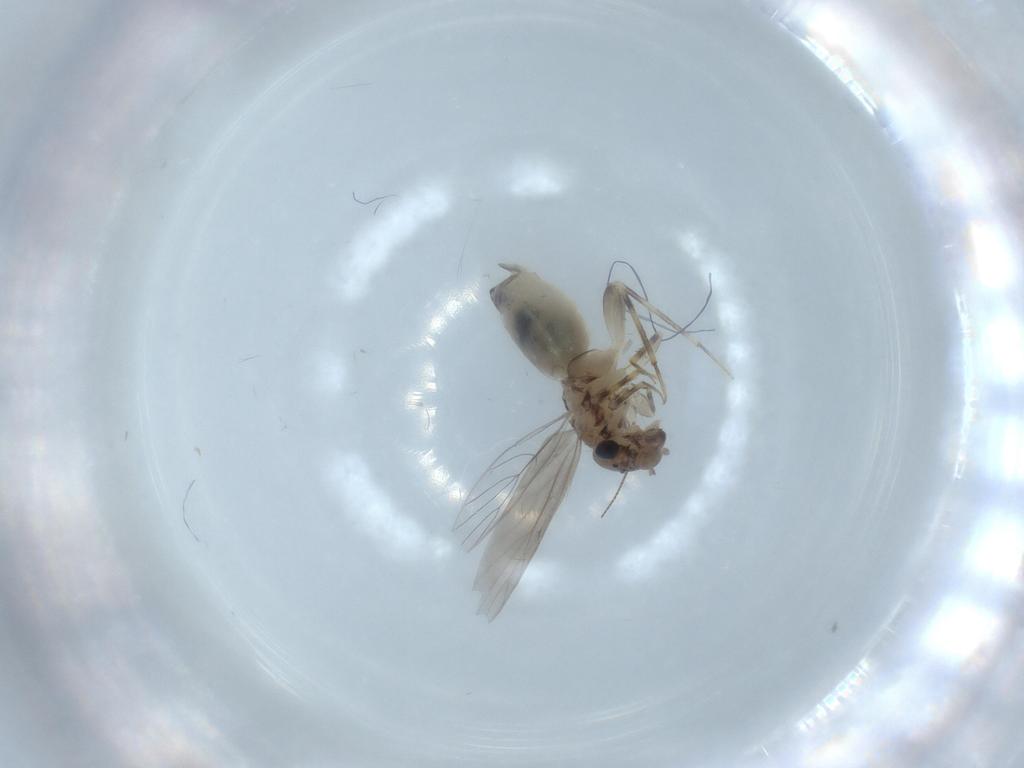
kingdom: Animalia
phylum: Arthropoda
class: Insecta
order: Psocodea
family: Lepidopsocidae
